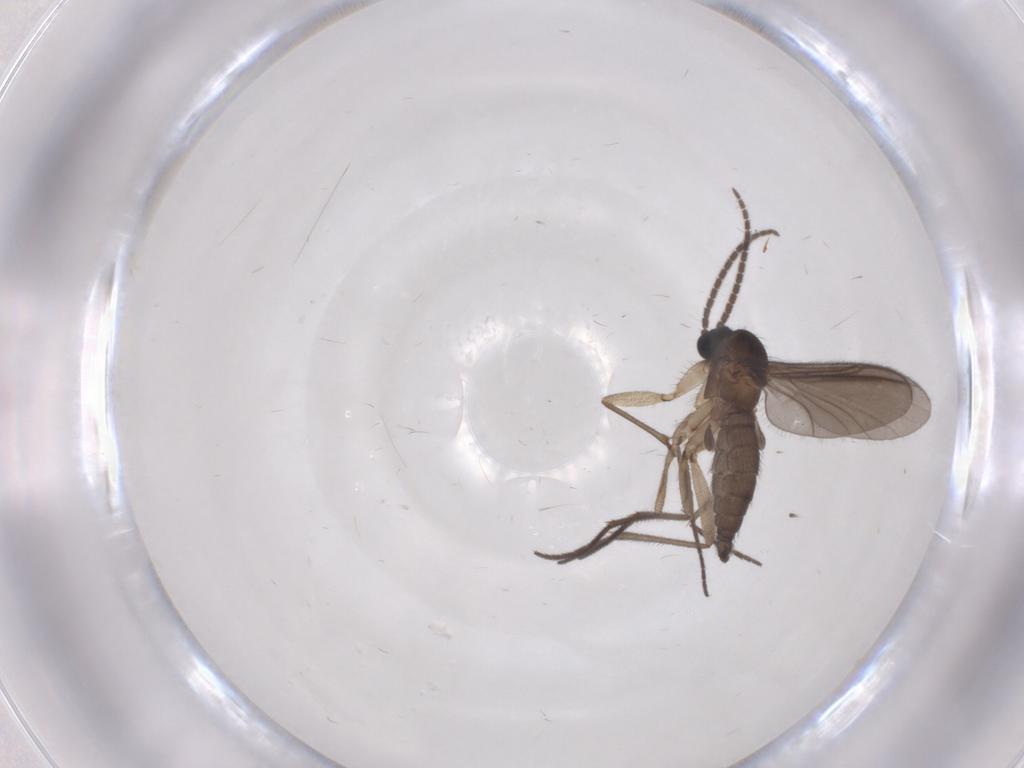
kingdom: Animalia
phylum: Arthropoda
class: Insecta
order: Diptera
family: Sciaridae
